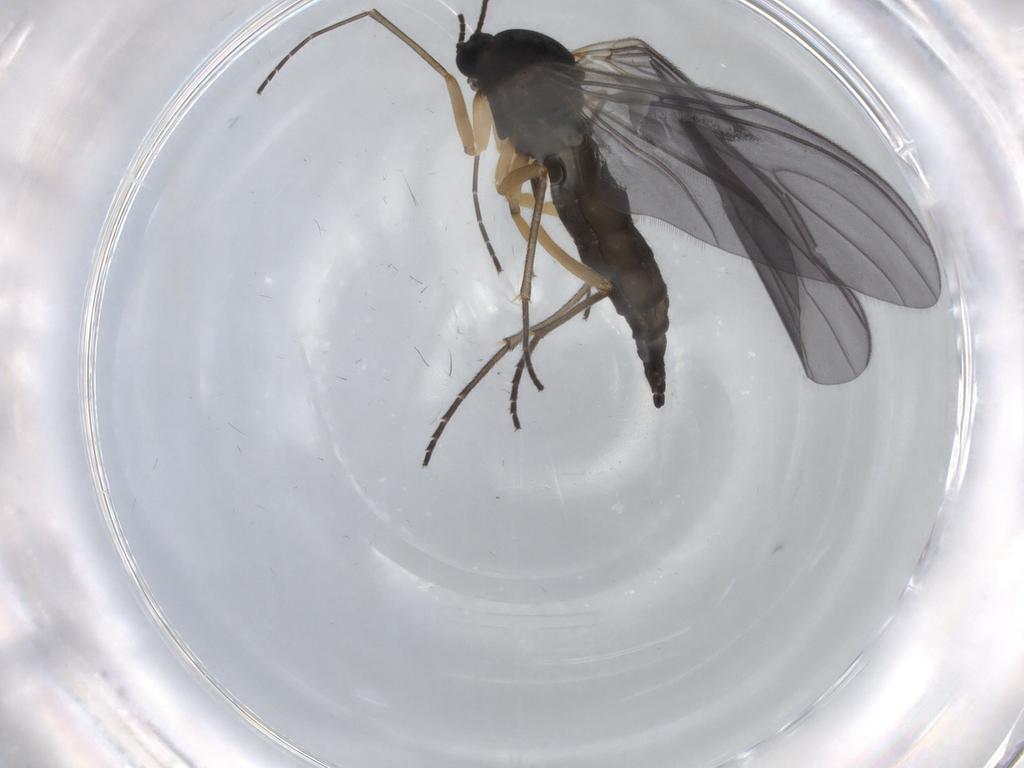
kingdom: Animalia
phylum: Arthropoda
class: Insecta
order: Diptera
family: Sciaridae
